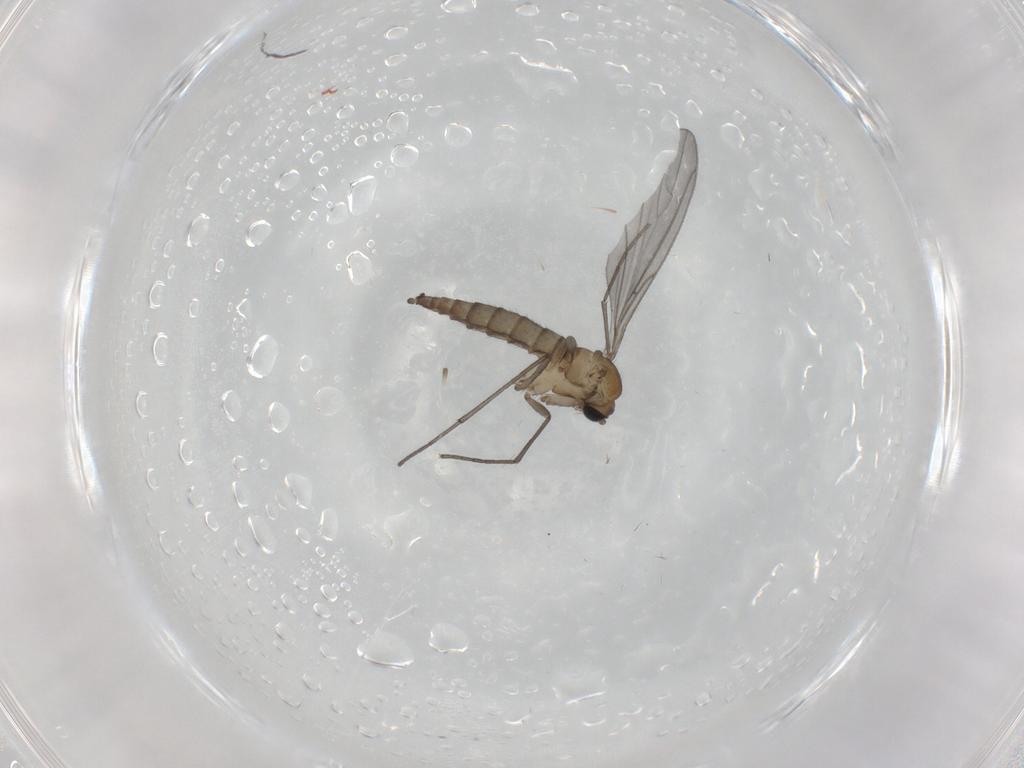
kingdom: Animalia
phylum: Arthropoda
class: Insecta
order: Diptera
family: Sciaridae
